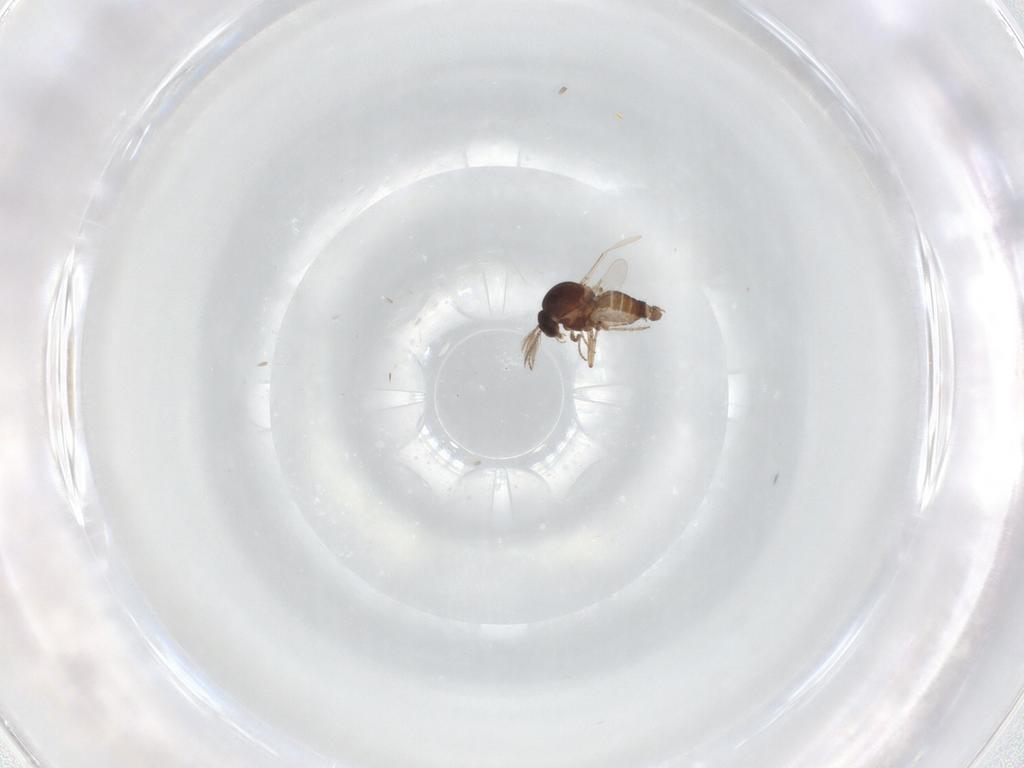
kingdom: Animalia
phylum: Arthropoda
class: Insecta
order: Diptera
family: Ceratopogonidae
